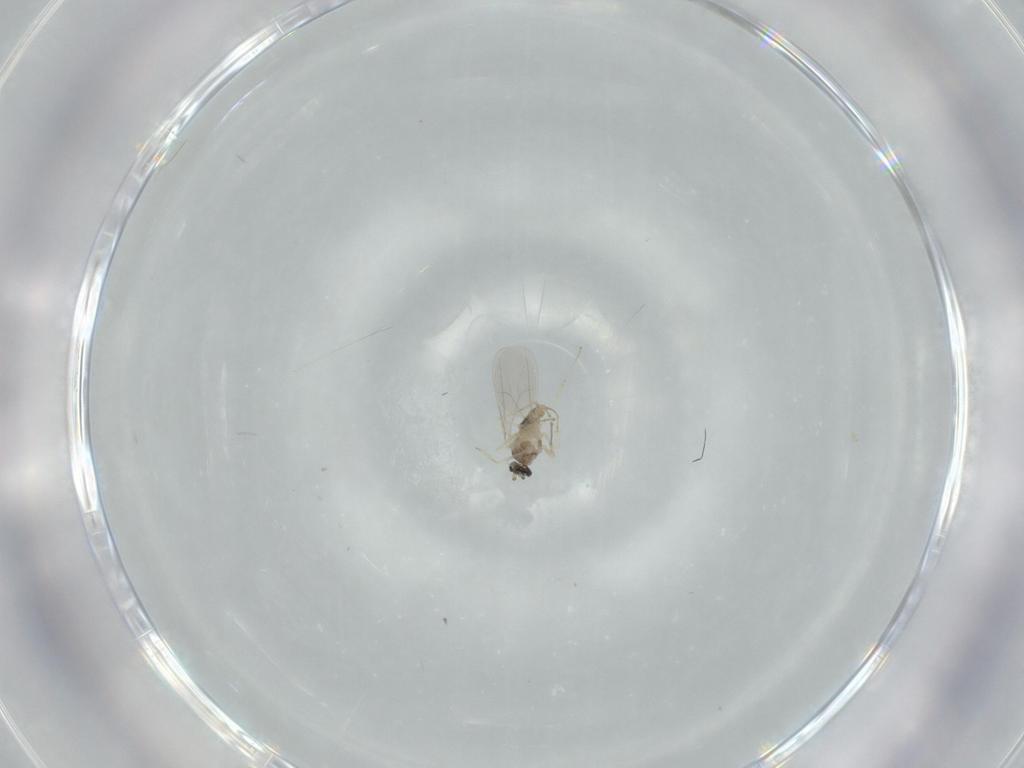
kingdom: Animalia
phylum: Arthropoda
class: Insecta
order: Diptera
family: Cecidomyiidae
